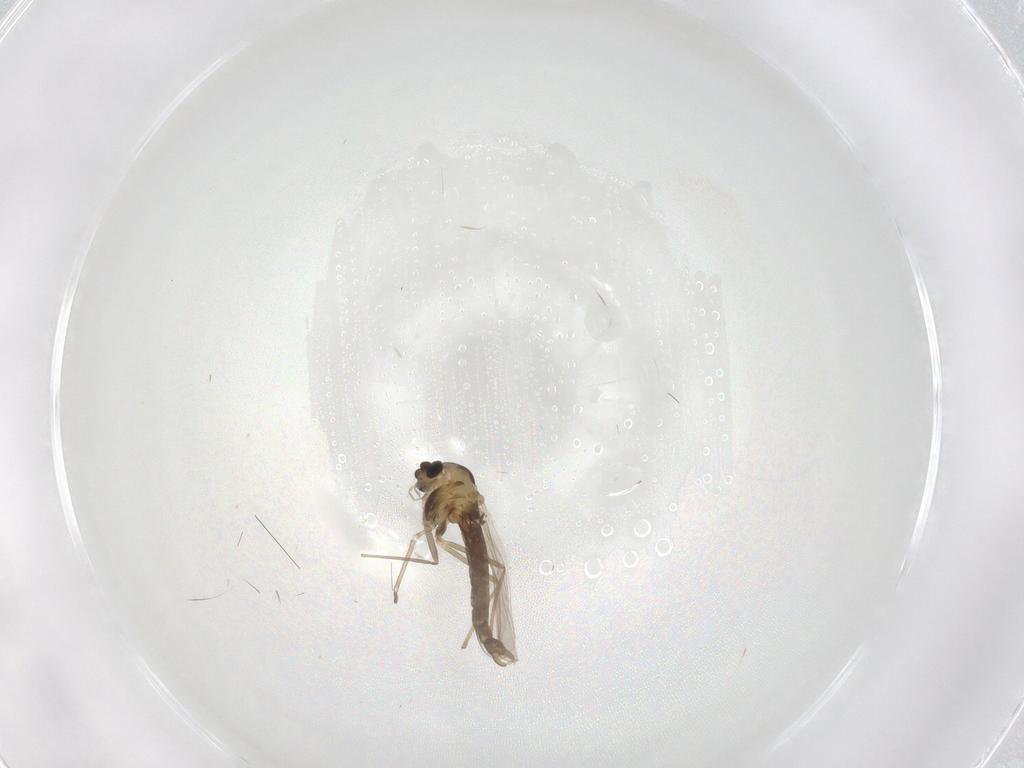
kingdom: Animalia
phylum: Arthropoda
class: Insecta
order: Diptera
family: Chironomidae
